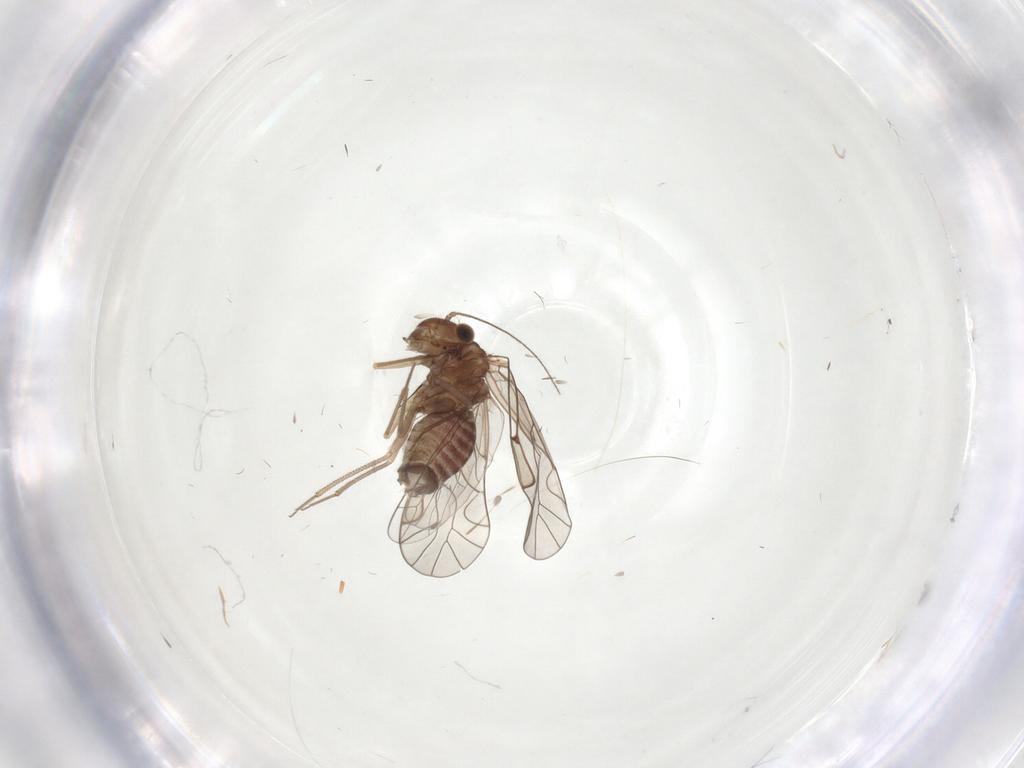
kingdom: Animalia
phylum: Arthropoda
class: Insecta
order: Psocodea
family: Lachesillidae
